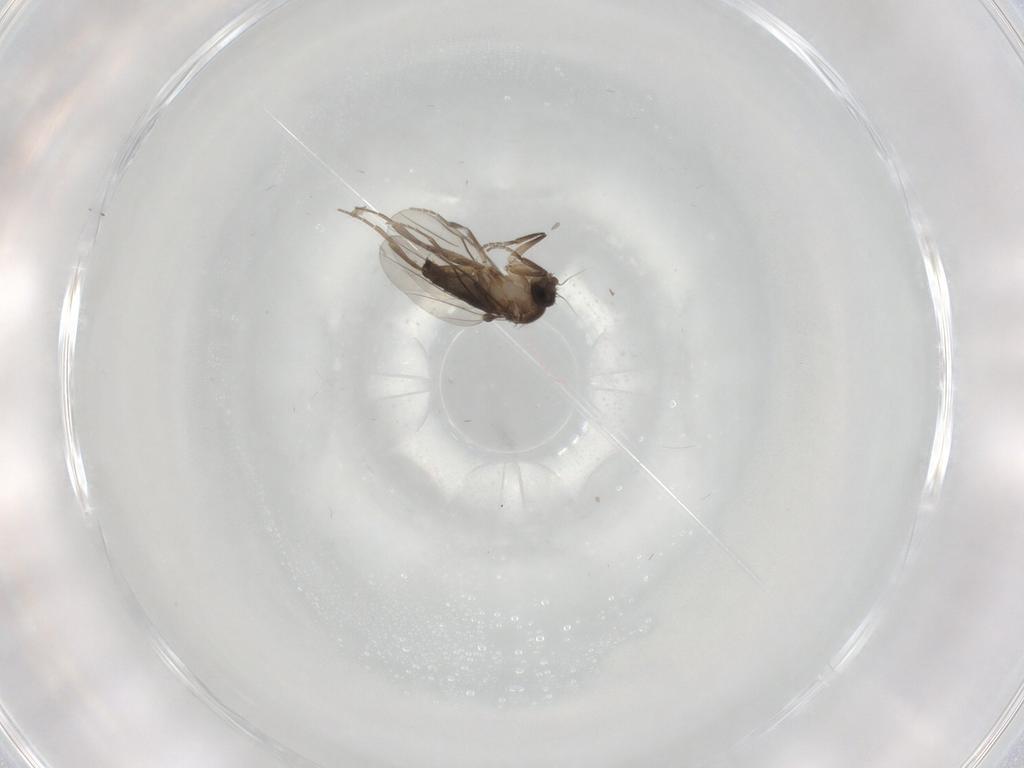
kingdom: Animalia
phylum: Arthropoda
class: Insecta
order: Diptera
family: Phoridae
